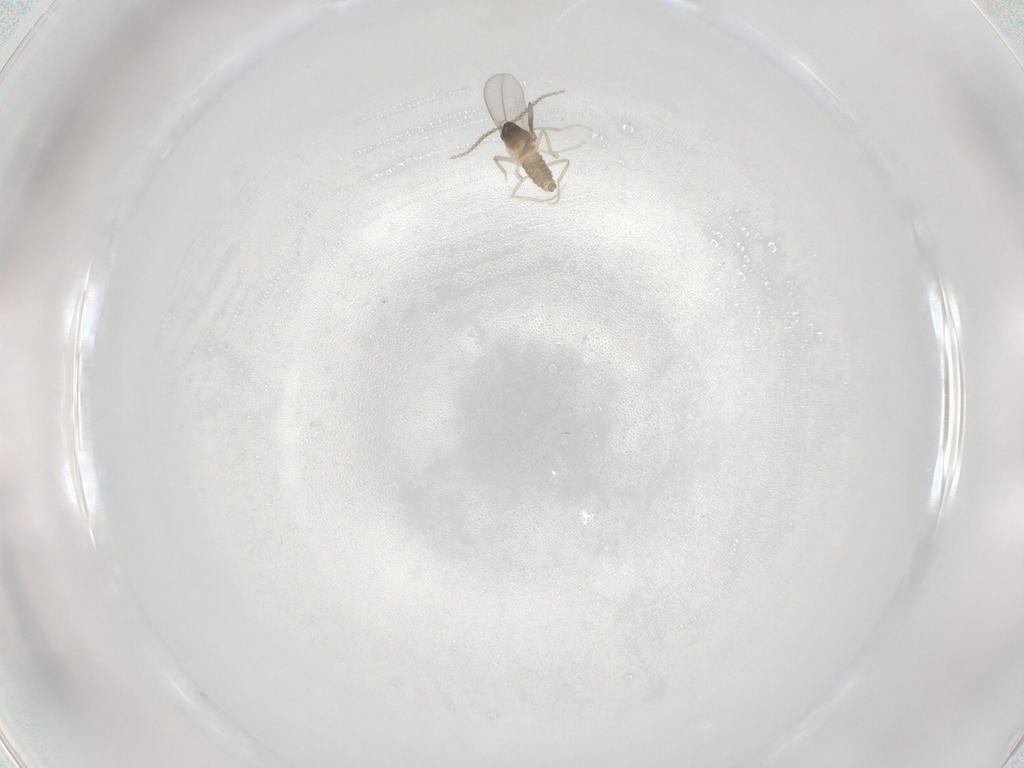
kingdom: Animalia
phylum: Arthropoda
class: Insecta
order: Diptera
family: Cecidomyiidae
